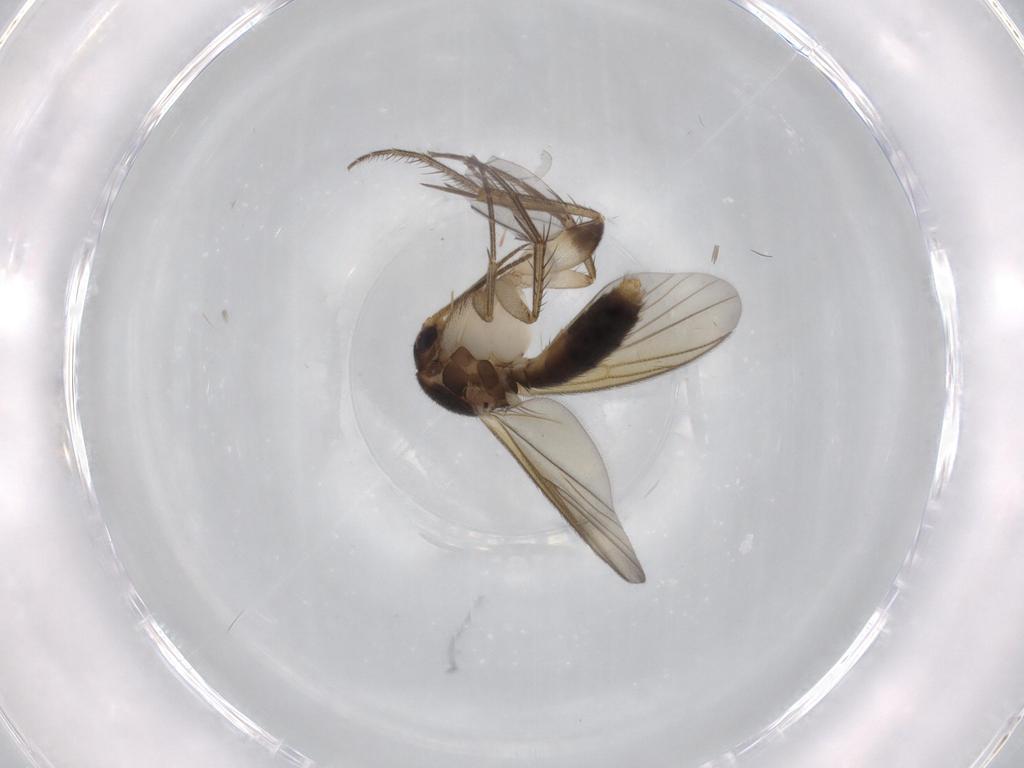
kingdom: Animalia
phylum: Arthropoda
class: Insecta
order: Diptera
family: Mycetophilidae
